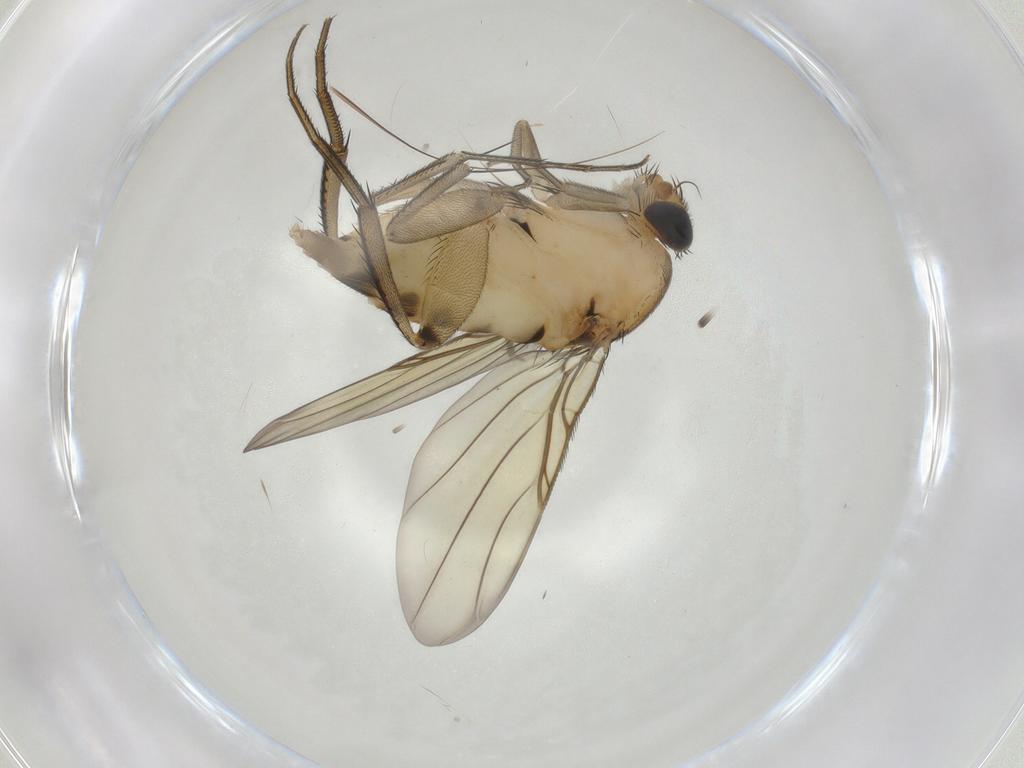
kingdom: Animalia
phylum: Arthropoda
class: Insecta
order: Diptera
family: Phoridae
